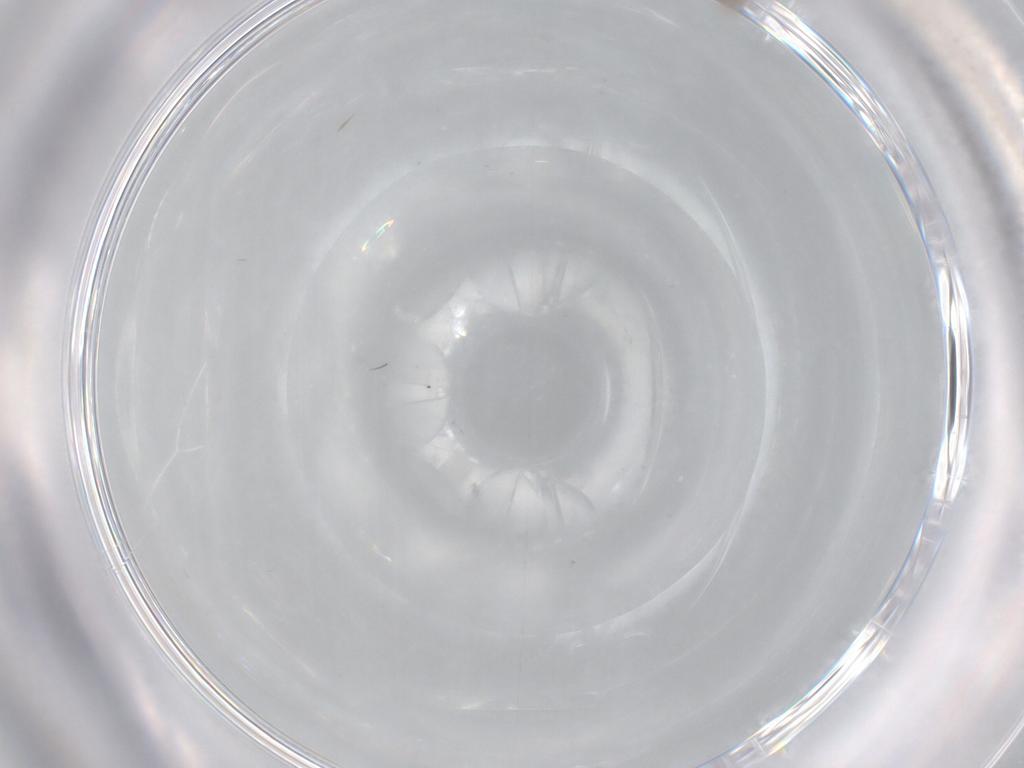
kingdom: Animalia
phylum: Arthropoda
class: Insecta
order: Diptera
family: Cecidomyiidae
